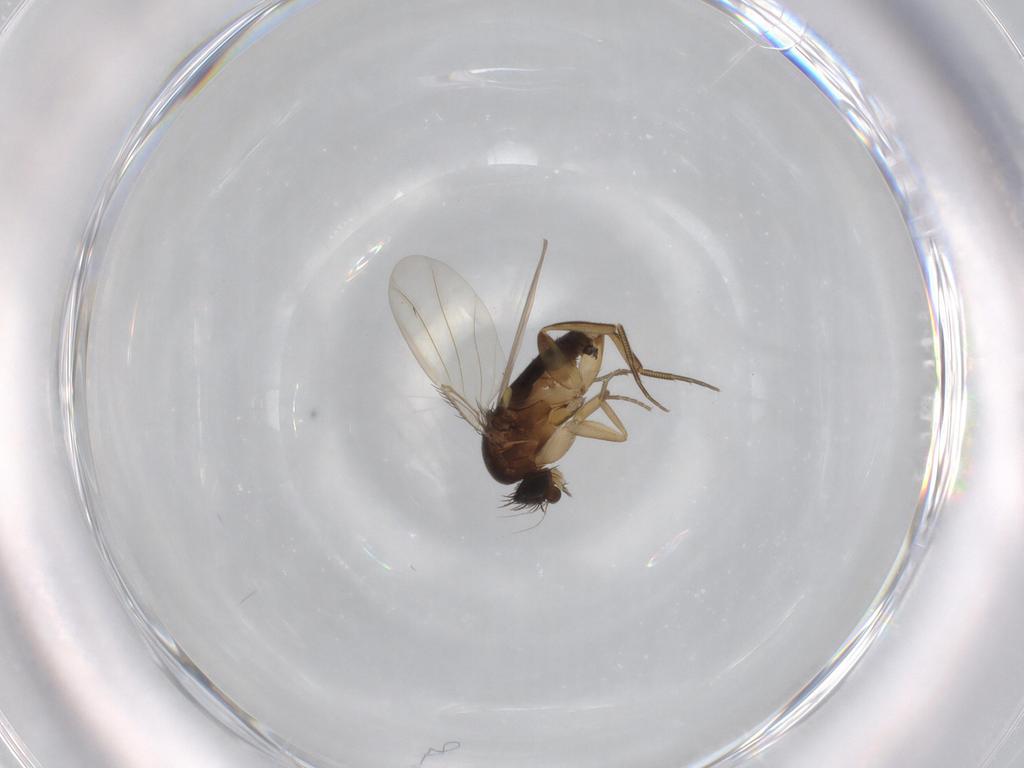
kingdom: Animalia
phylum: Arthropoda
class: Insecta
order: Diptera
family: Phoridae
